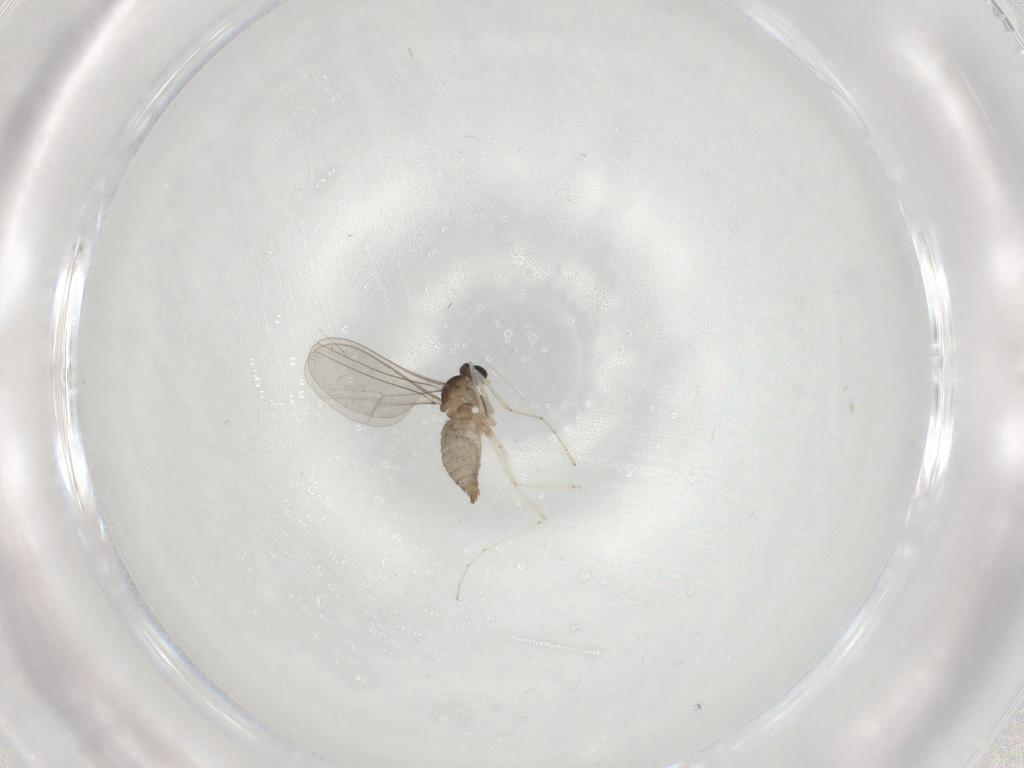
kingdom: Animalia
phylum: Arthropoda
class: Insecta
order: Diptera
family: Cecidomyiidae
